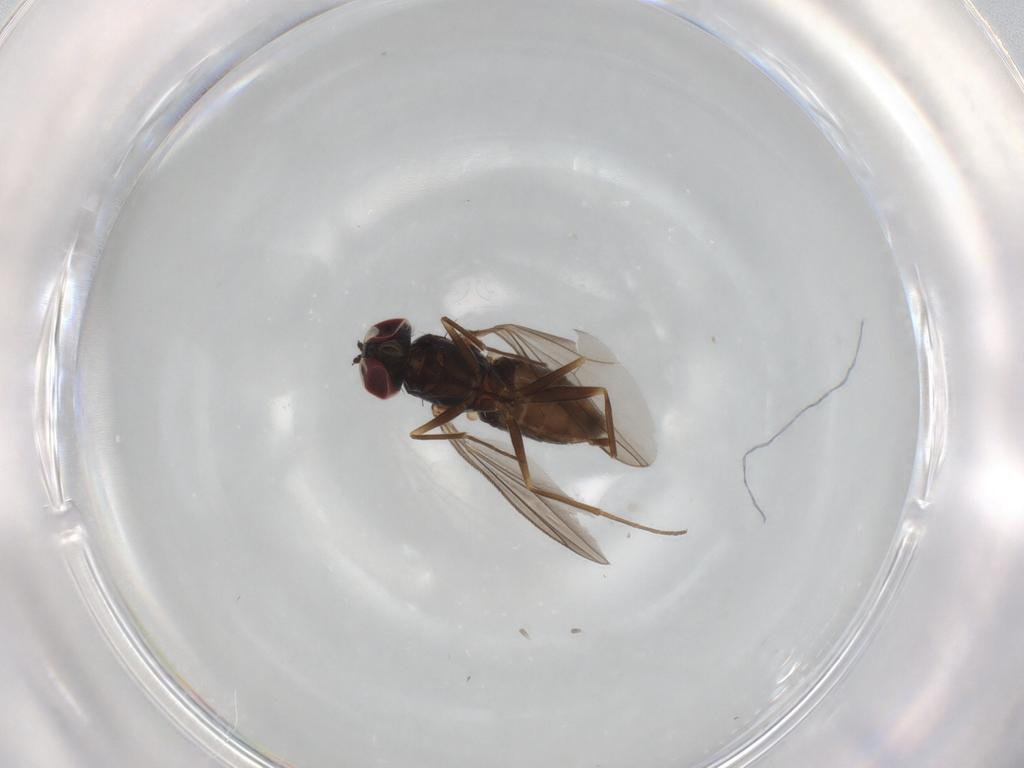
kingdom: Animalia
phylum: Arthropoda
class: Insecta
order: Diptera
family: Dolichopodidae
